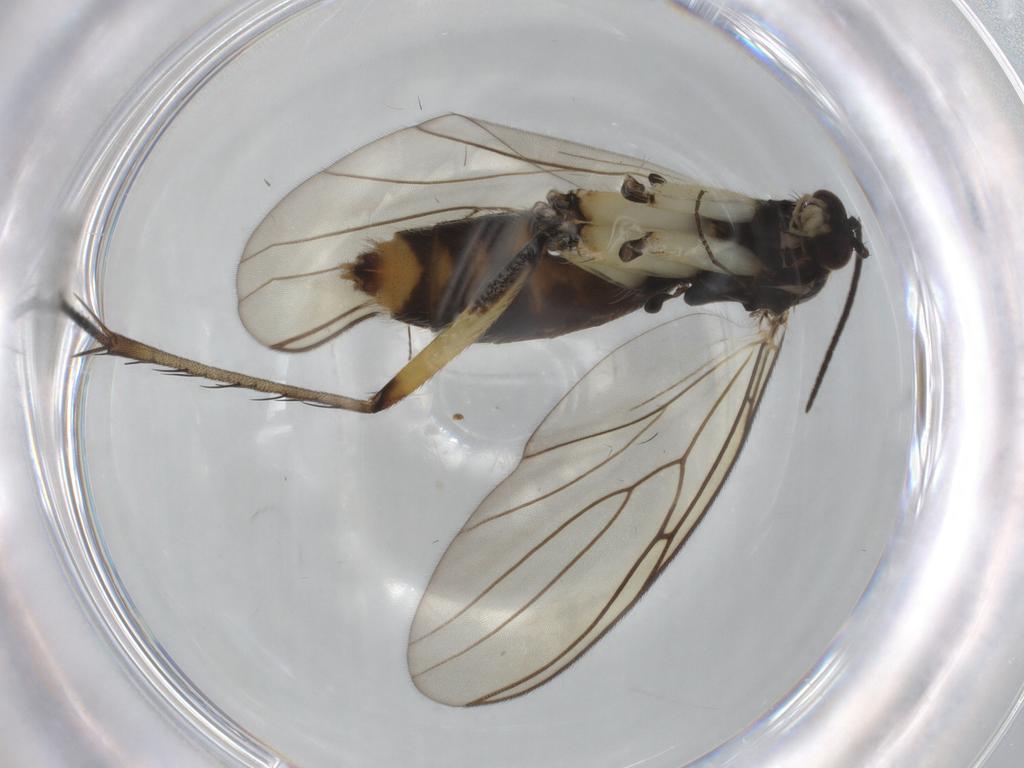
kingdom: Animalia
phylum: Arthropoda
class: Insecta
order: Diptera
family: Mycetophilidae
